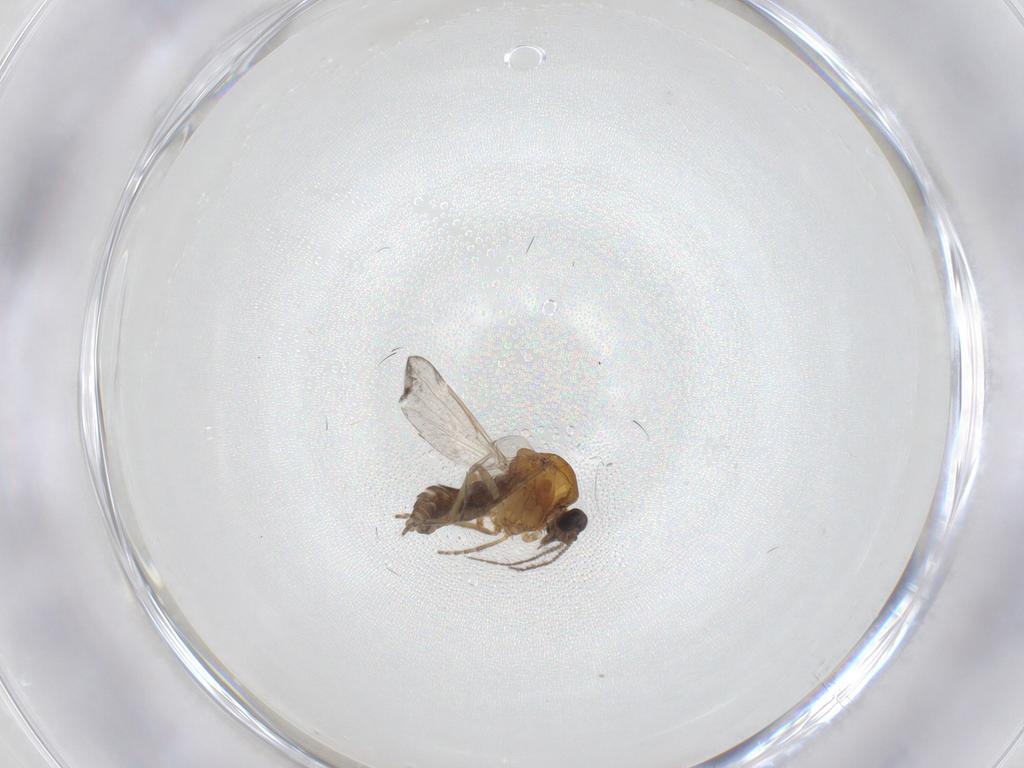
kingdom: Animalia
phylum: Arthropoda
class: Insecta
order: Diptera
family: Tabanidae
